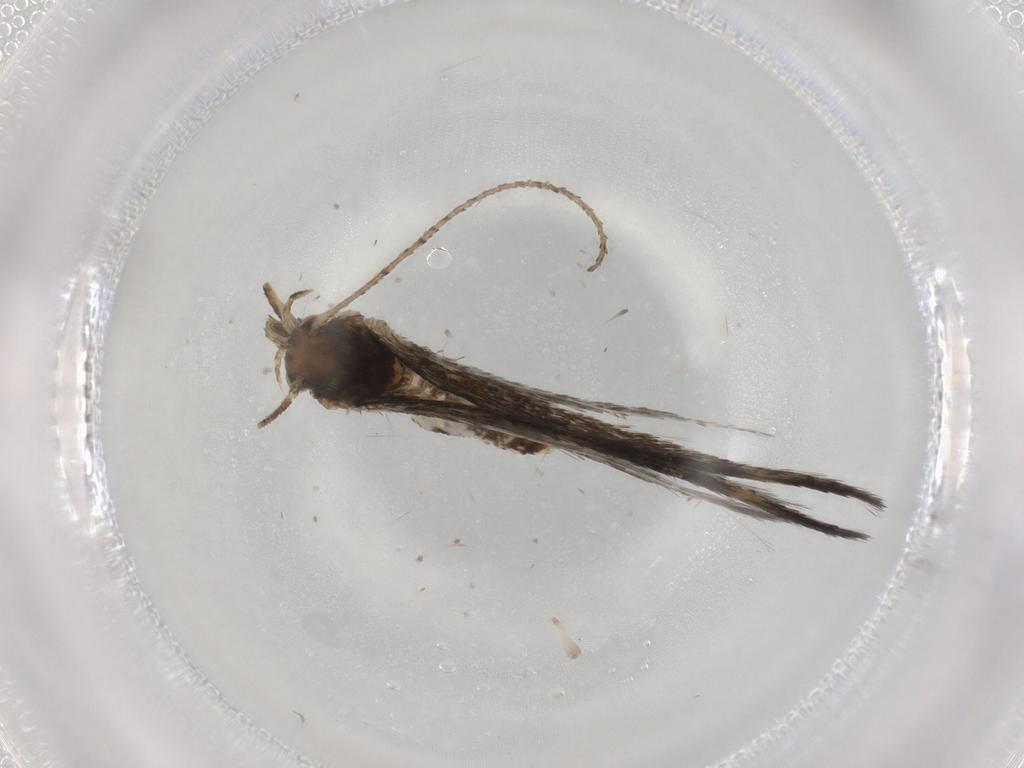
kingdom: Animalia
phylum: Arthropoda
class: Insecta
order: Lepidoptera
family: Gelechiidae
